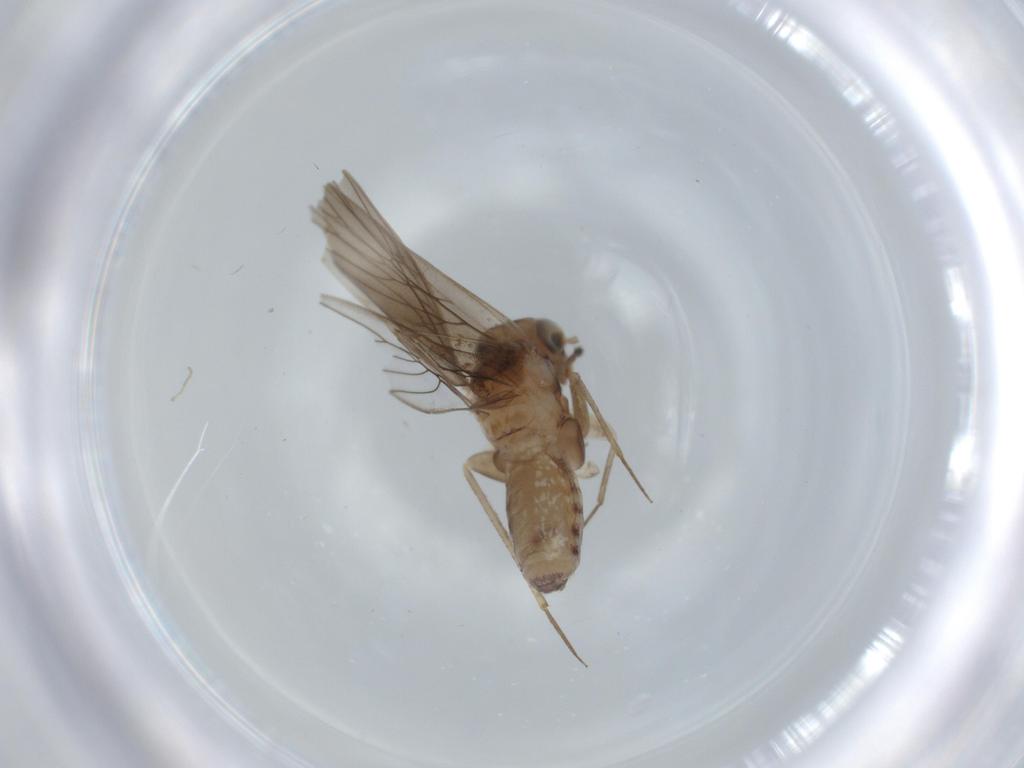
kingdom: Animalia
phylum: Arthropoda
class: Insecta
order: Psocodea
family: Lepidopsocidae
